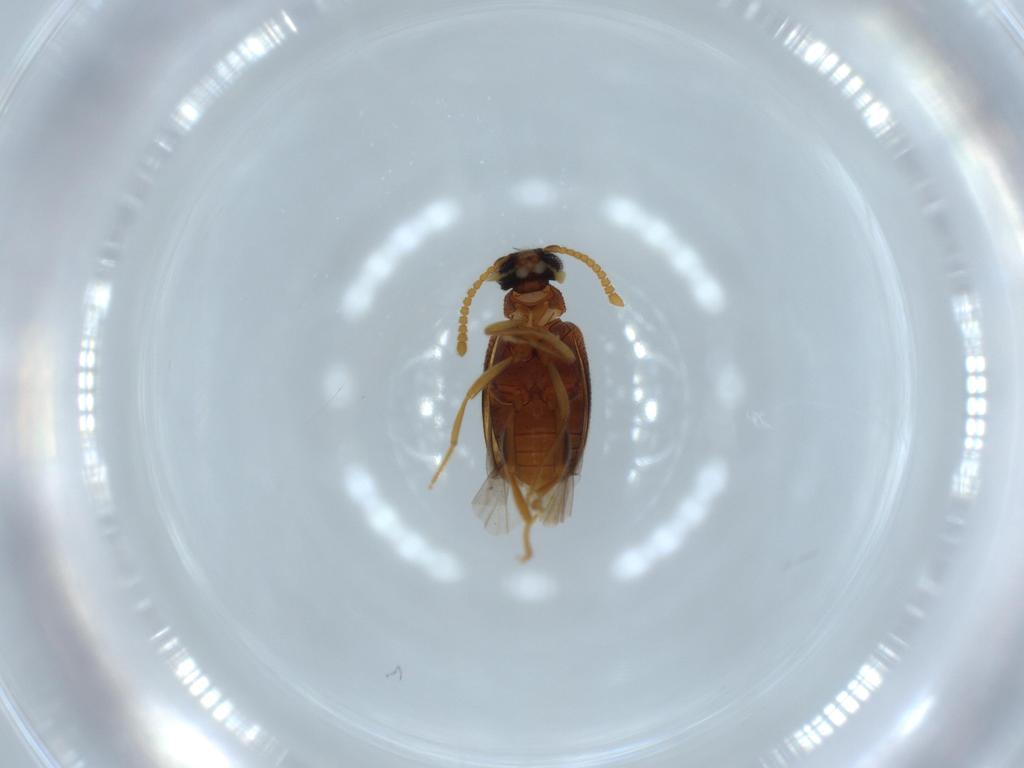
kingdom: Animalia
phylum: Arthropoda
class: Insecta
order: Coleoptera
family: Aderidae
